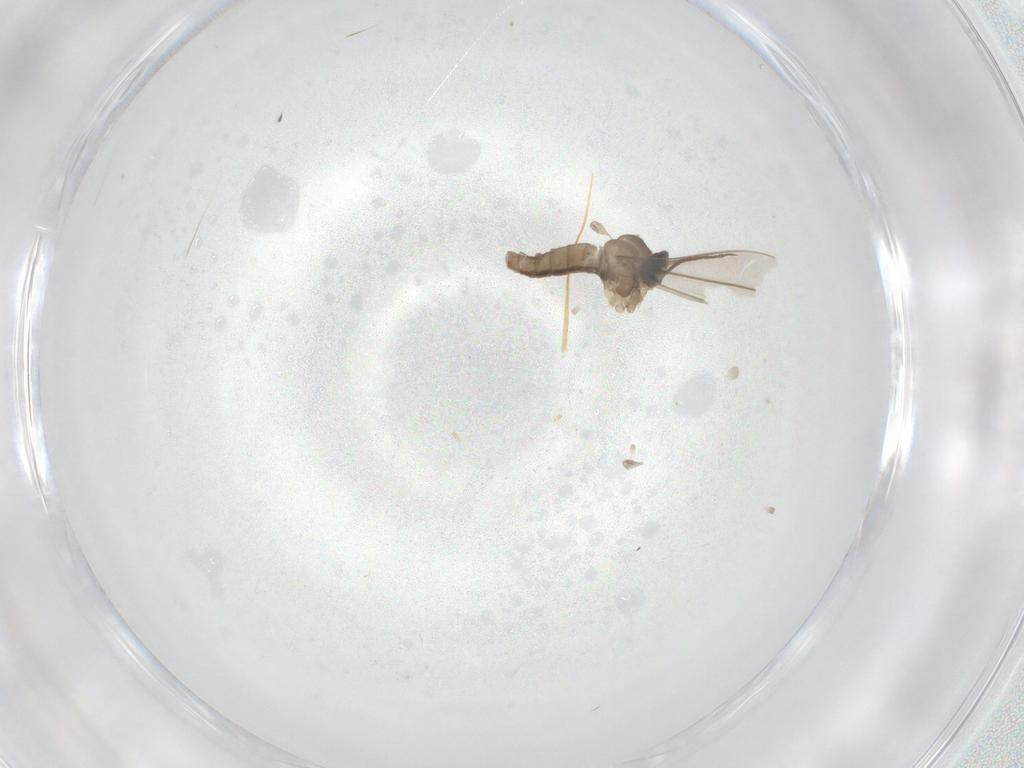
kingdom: Animalia
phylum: Arthropoda
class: Insecta
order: Diptera
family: Cecidomyiidae
